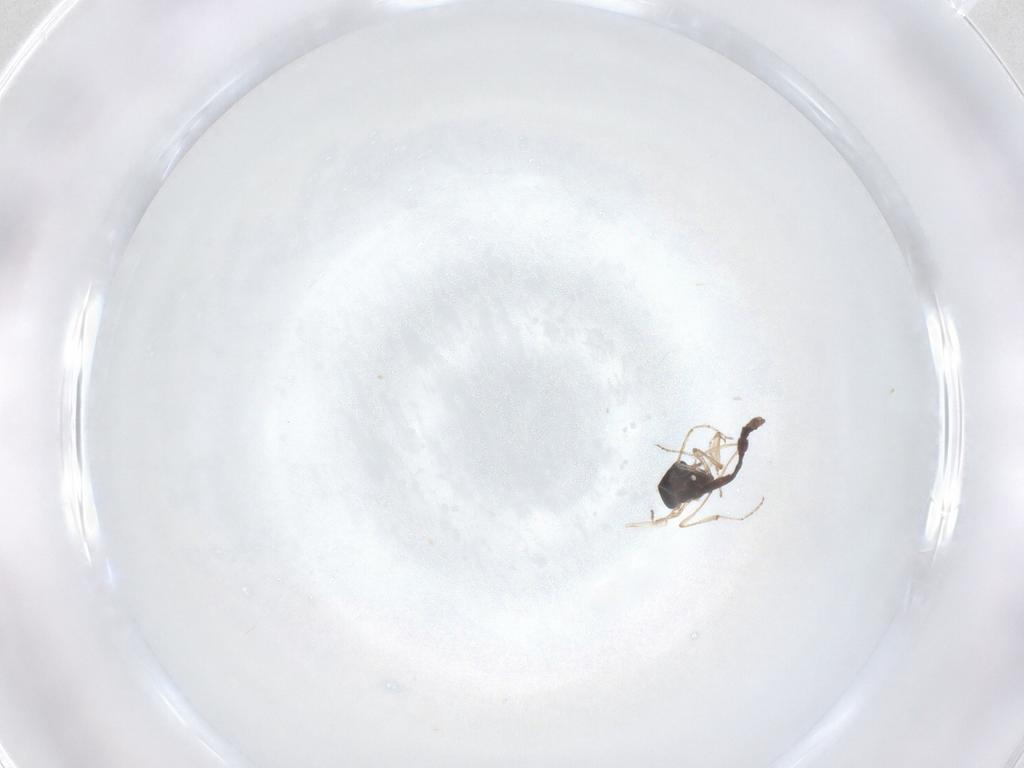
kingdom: Animalia
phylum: Arthropoda
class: Insecta
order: Diptera
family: Ceratopogonidae
